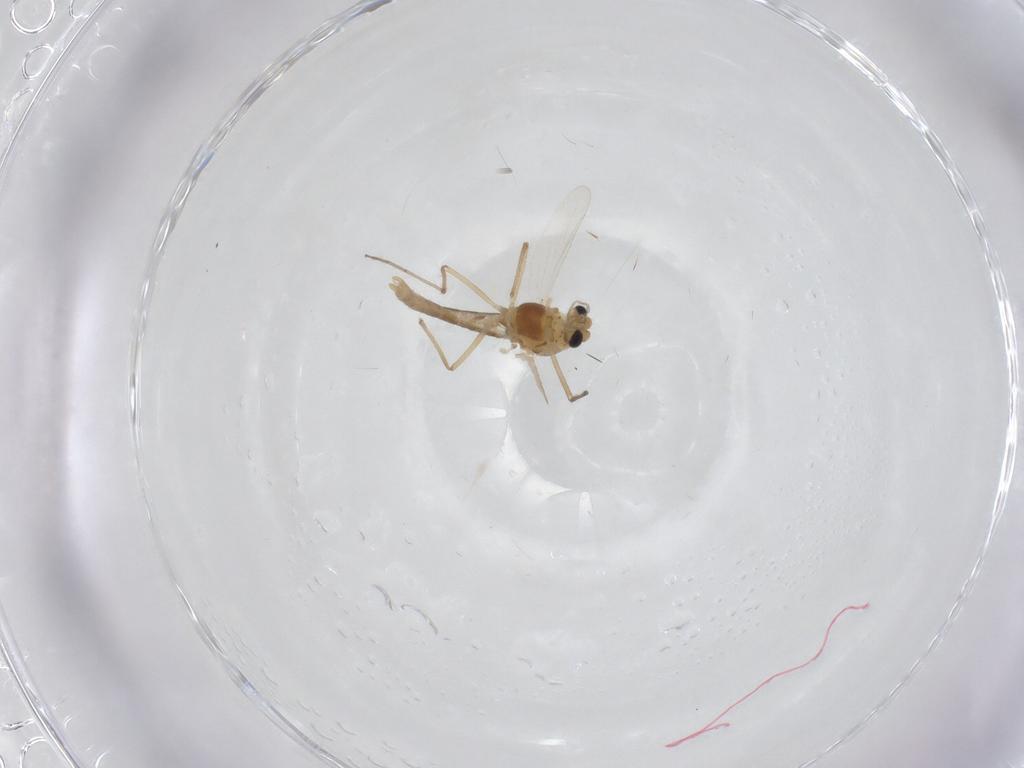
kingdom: Animalia
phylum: Arthropoda
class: Insecta
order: Diptera
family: Chironomidae
